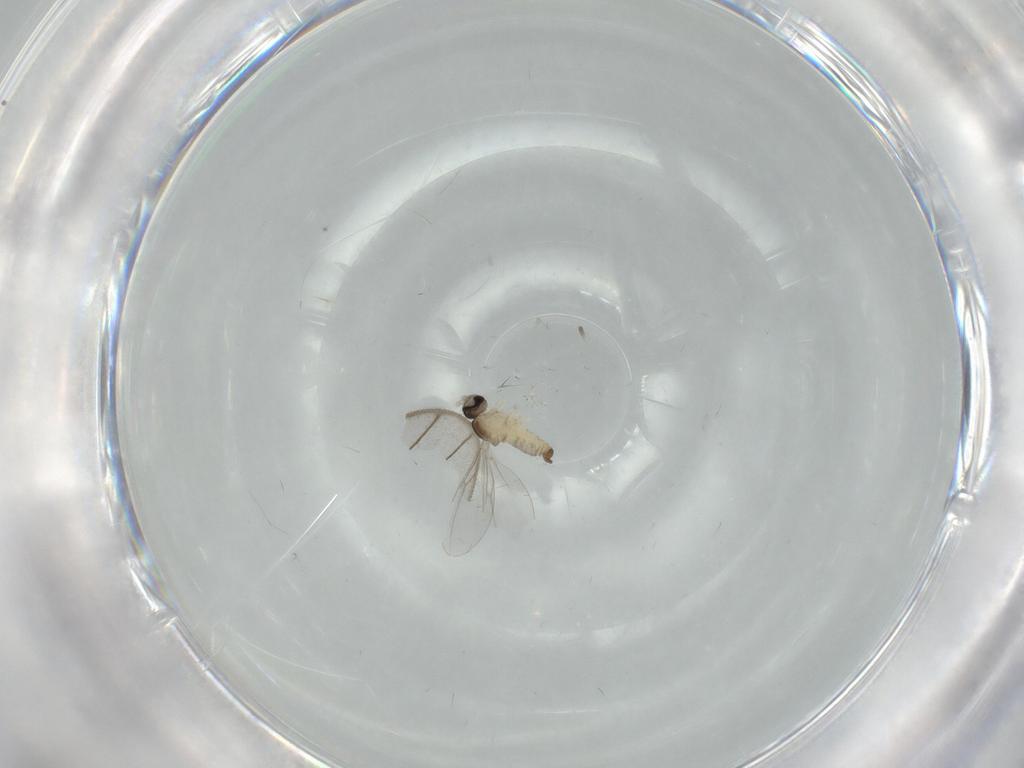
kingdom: Animalia
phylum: Arthropoda
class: Insecta
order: Diptera
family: Cecidomyiidae
